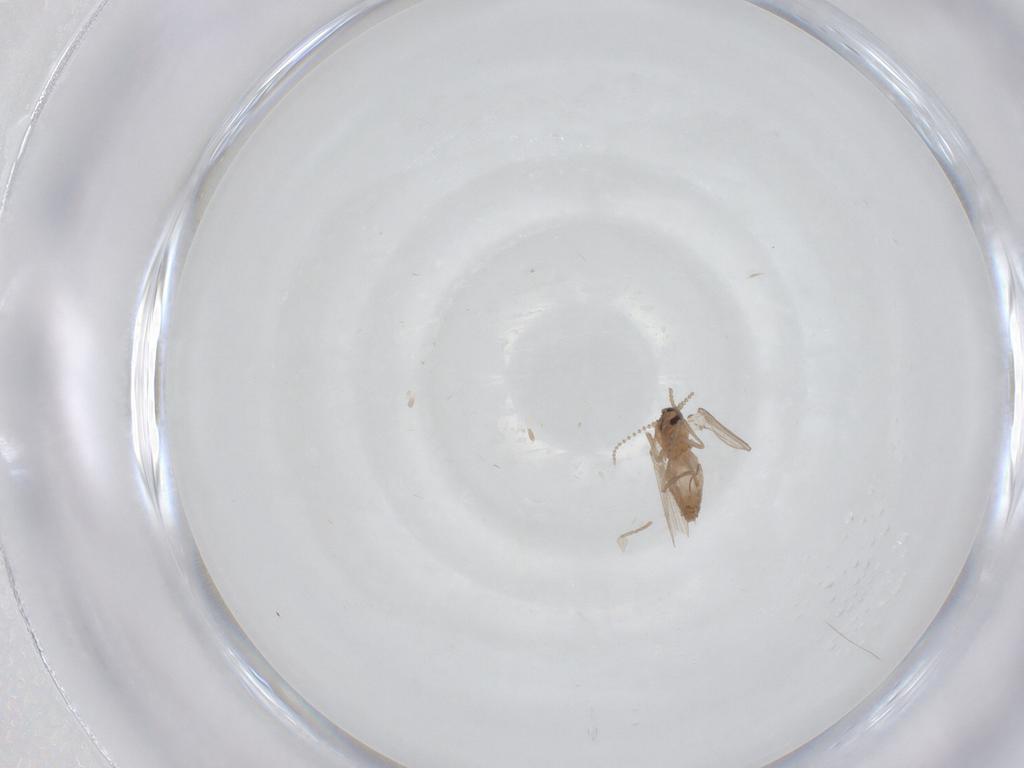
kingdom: Animalia
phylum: Arthropoda
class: Insecta
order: Diptera
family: Psychodidae
